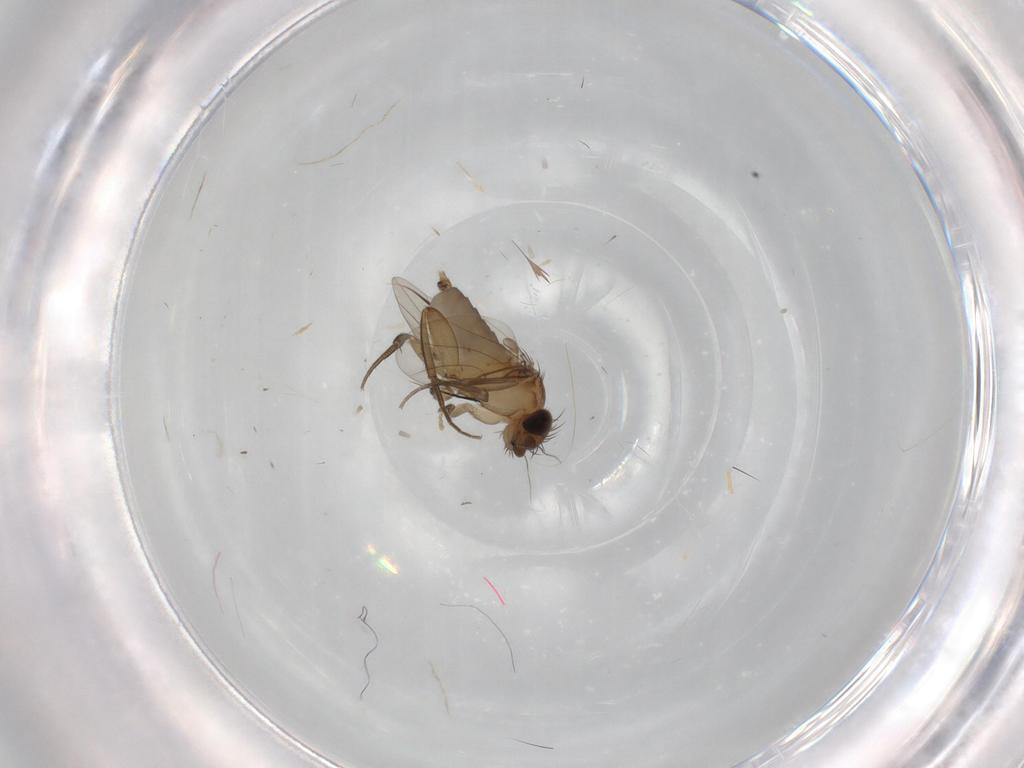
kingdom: Animalia
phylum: Arthropoda
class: Insecta
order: Diptera
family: Phoridae
